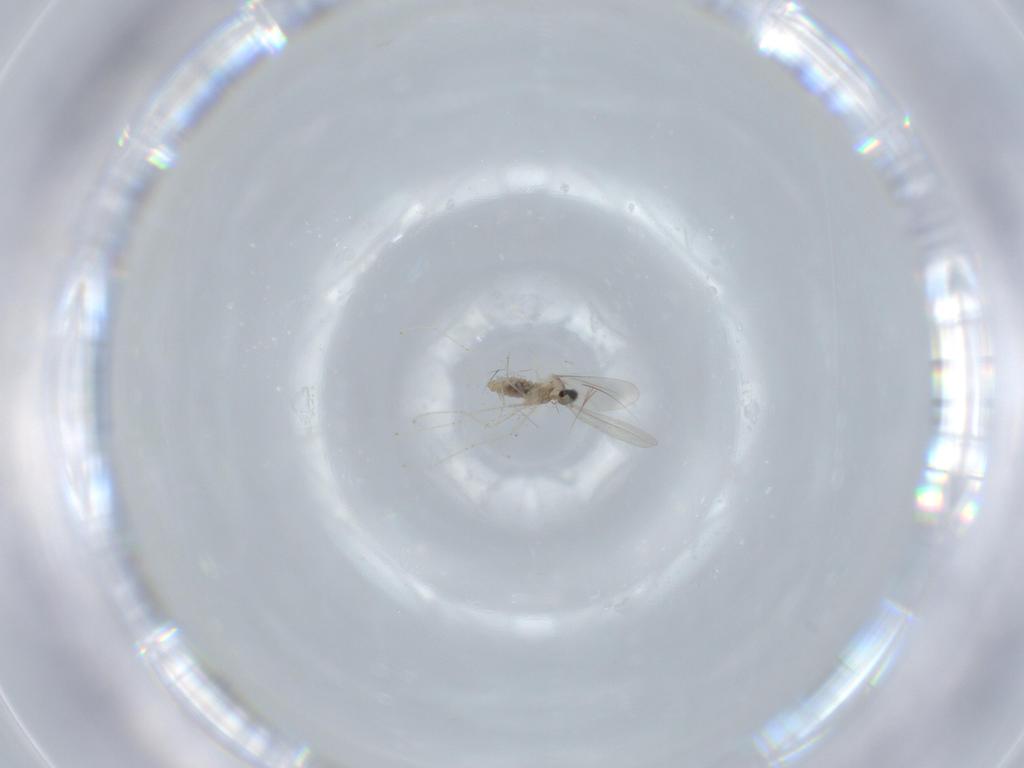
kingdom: Animalia
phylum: Arthropoda
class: Insecta
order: Diptera
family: Cecidomyiidae
